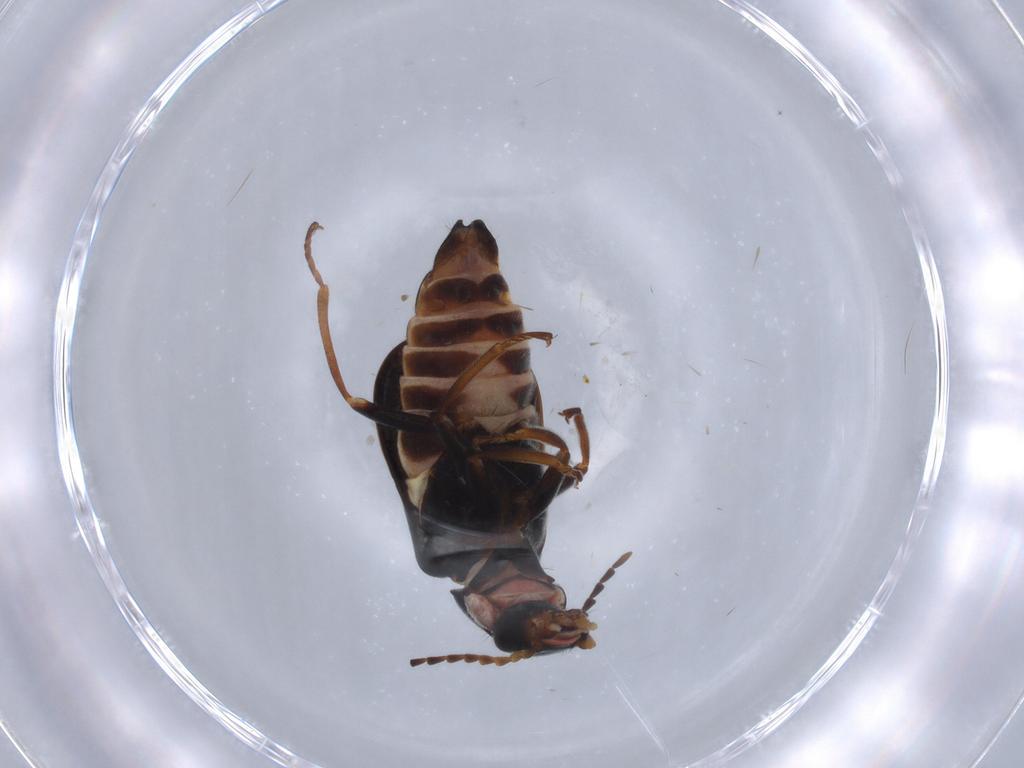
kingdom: Animalia
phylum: Arthropoda
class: Insecta
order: Coleoptera
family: Melyridae
